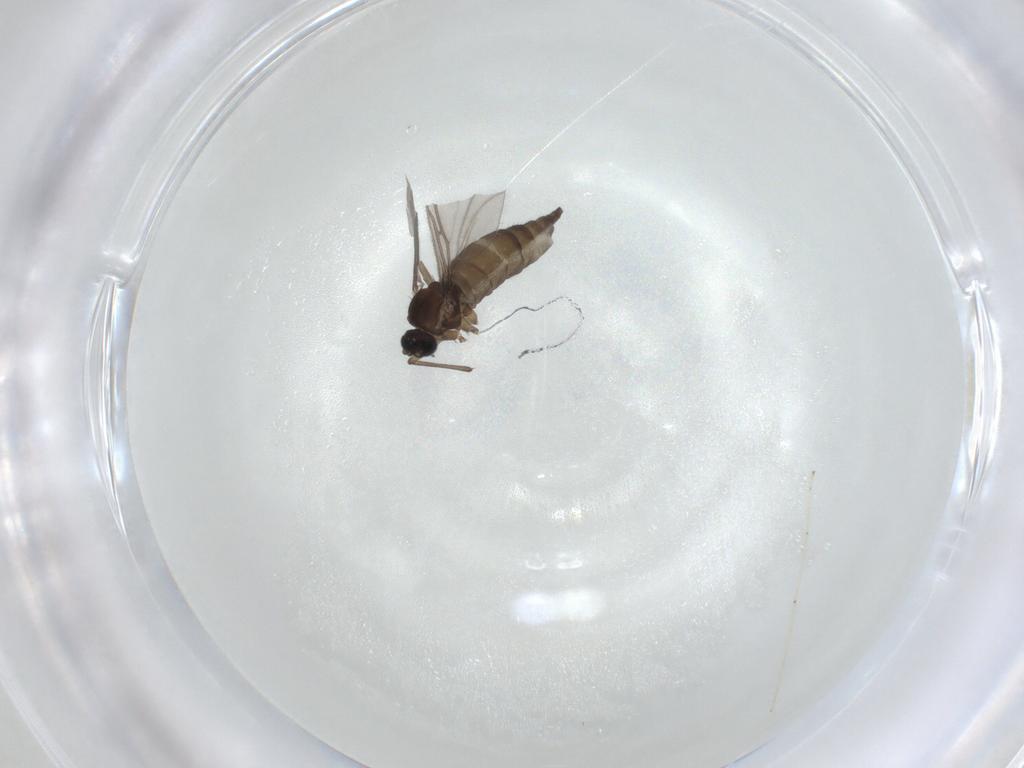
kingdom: Animalia
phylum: Arthropoda
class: Insecta
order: Diptera
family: Sciaridae
